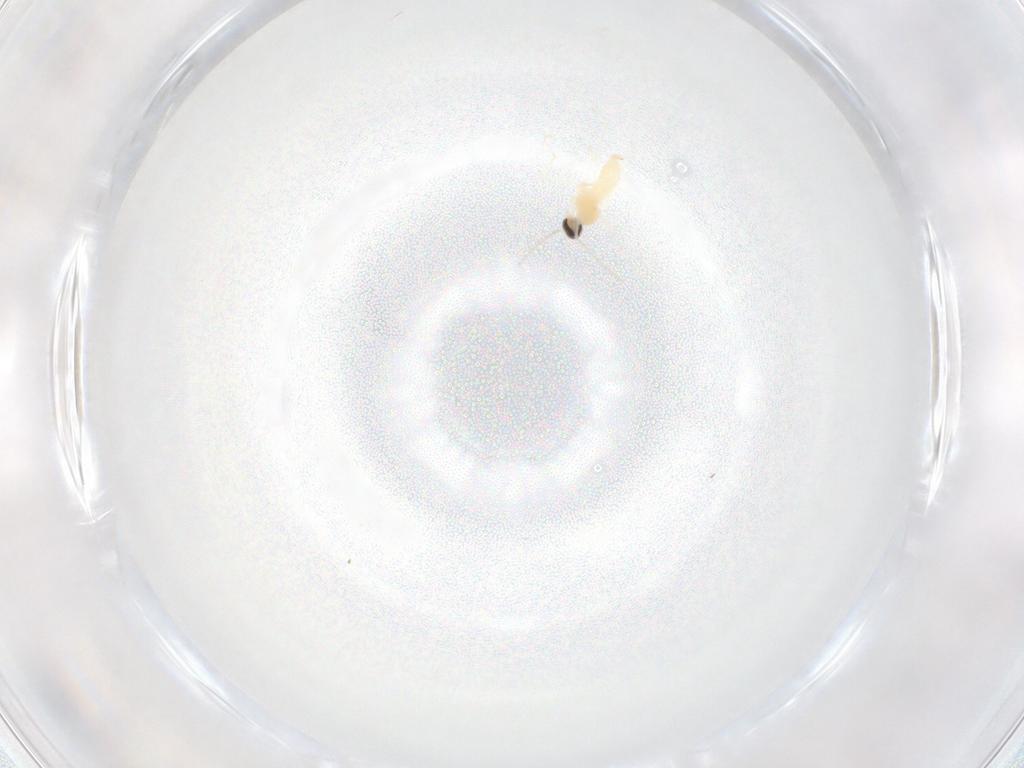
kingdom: Animalia
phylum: Arthropoda
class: Insecta
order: Diptera
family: Cecidomyiidae
